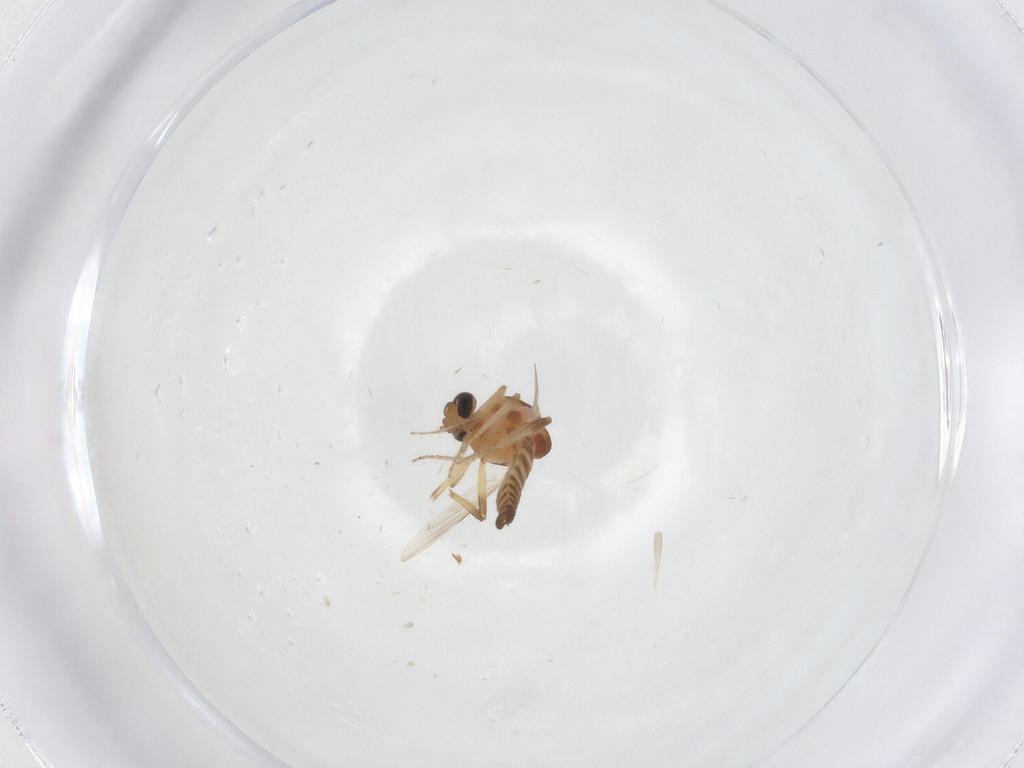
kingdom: Animalia
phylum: Arthropoda
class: Insecta
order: Diptera
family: Ceratopogonidae
